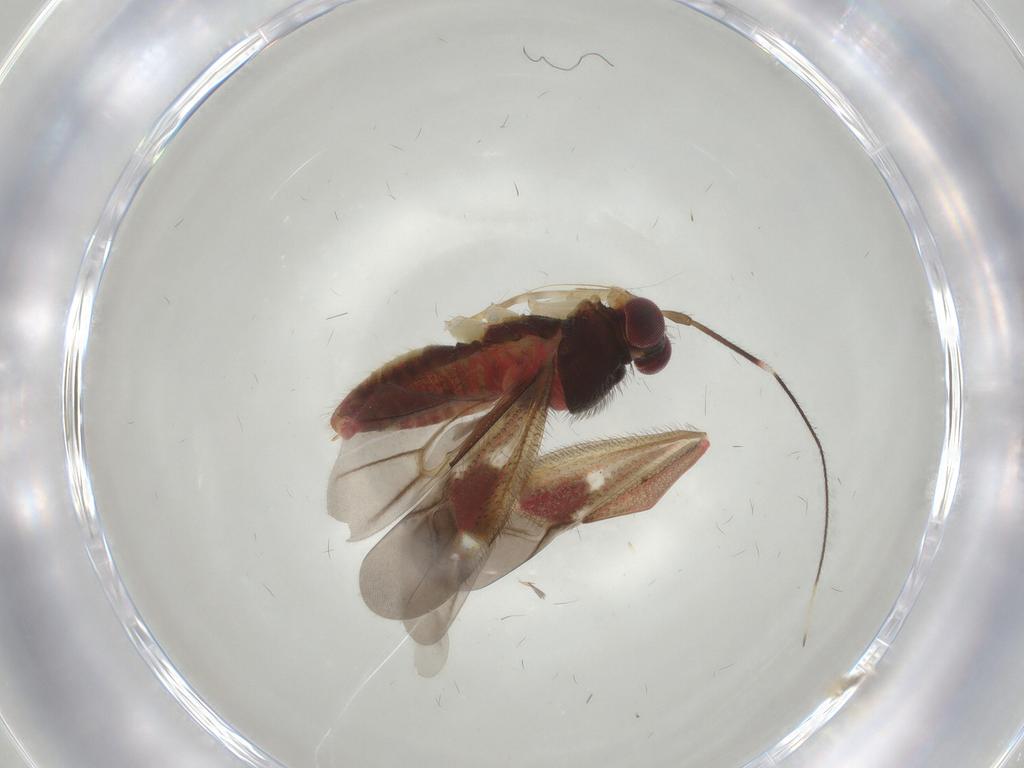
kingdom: Animalia
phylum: Arthropoda
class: Insecta
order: Hemiptera
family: Miridae
